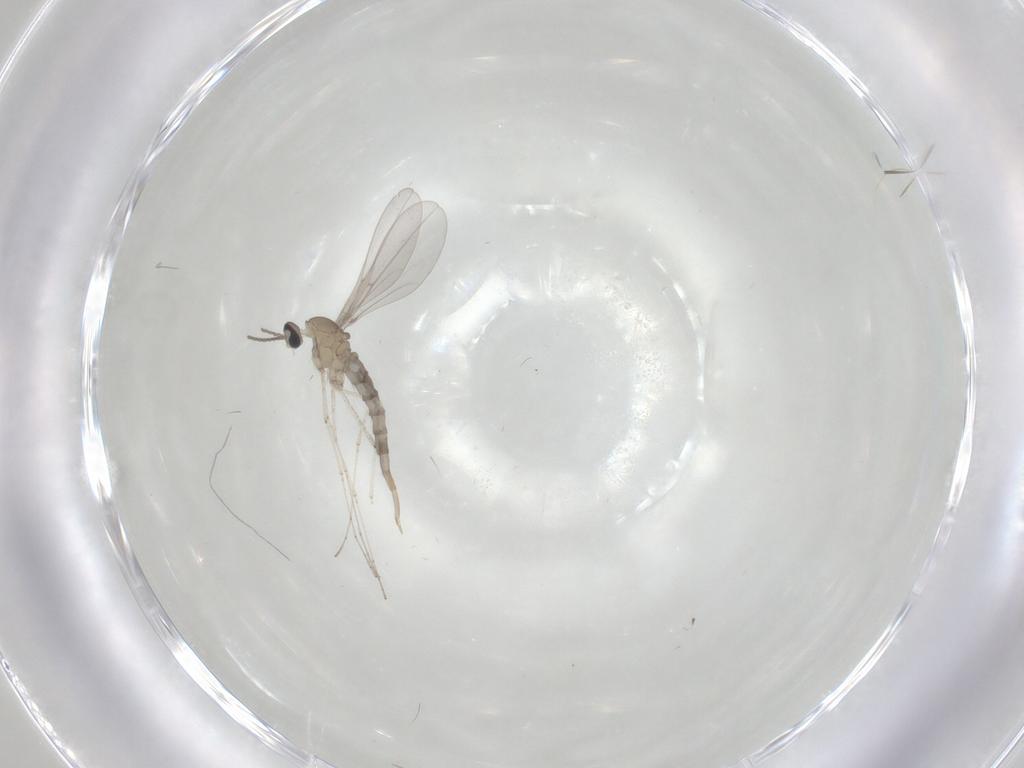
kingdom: Animalia
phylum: Arthropoda
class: Insecta
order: Diptera
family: Cecidomyiidae
